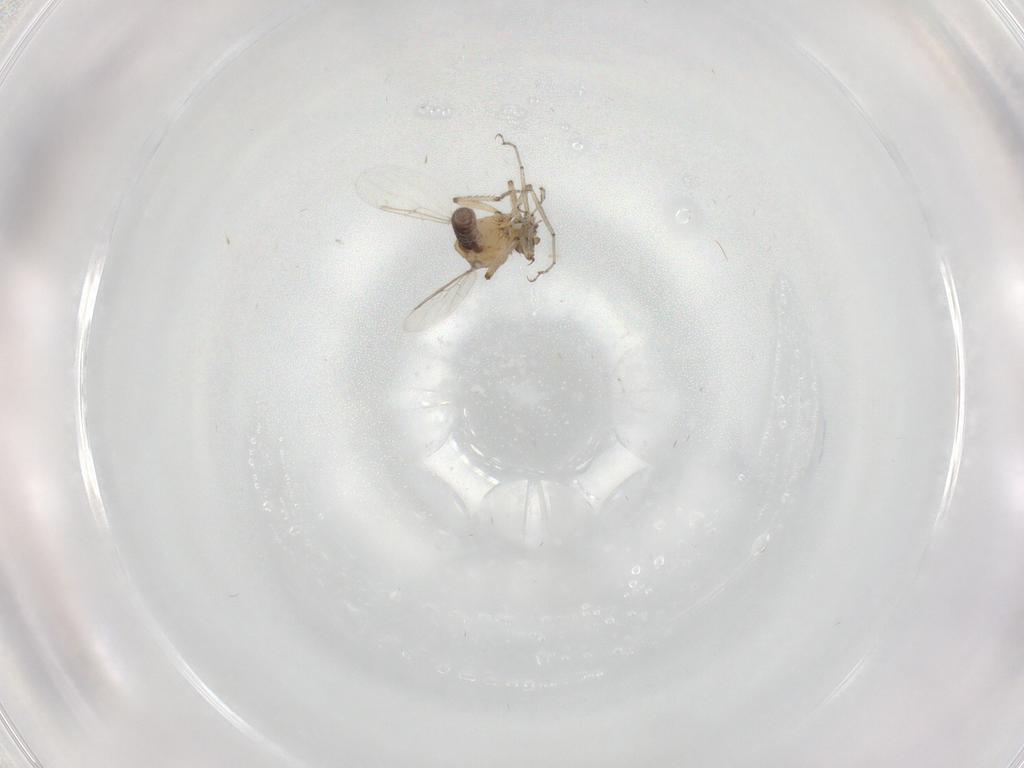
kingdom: Animalia
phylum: Arthropoda
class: Insecta
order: Diptera
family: Ceratopogonidae
